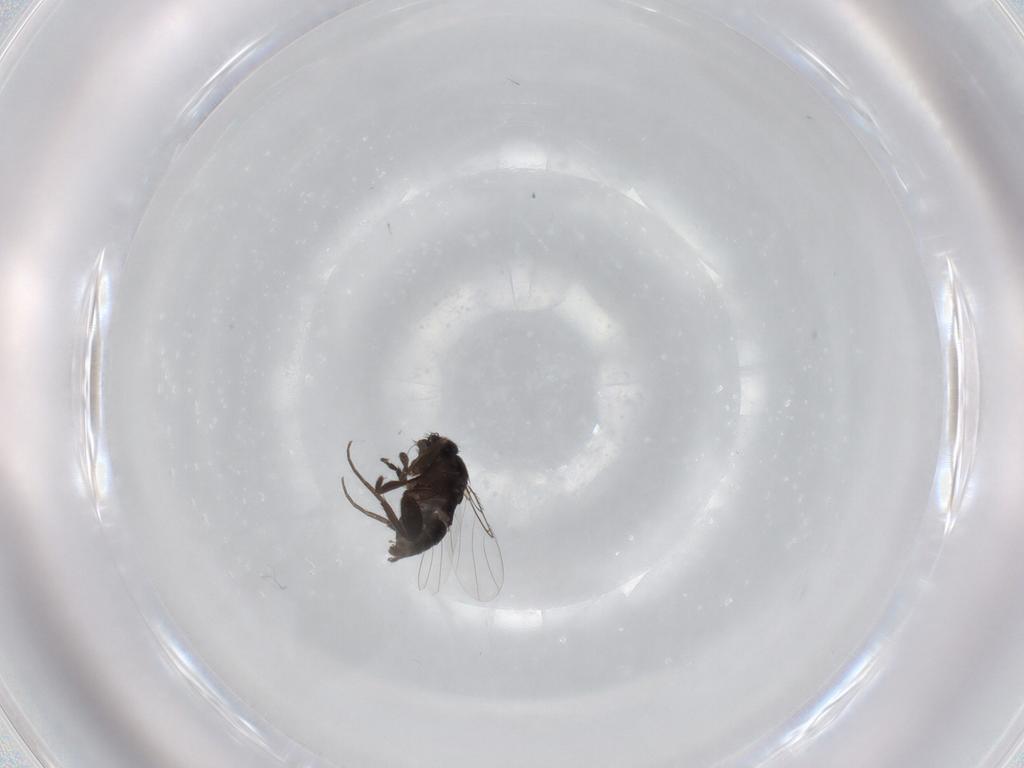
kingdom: Animalia
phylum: Arthropoda
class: Insecta
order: Diptera
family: Phoridae
